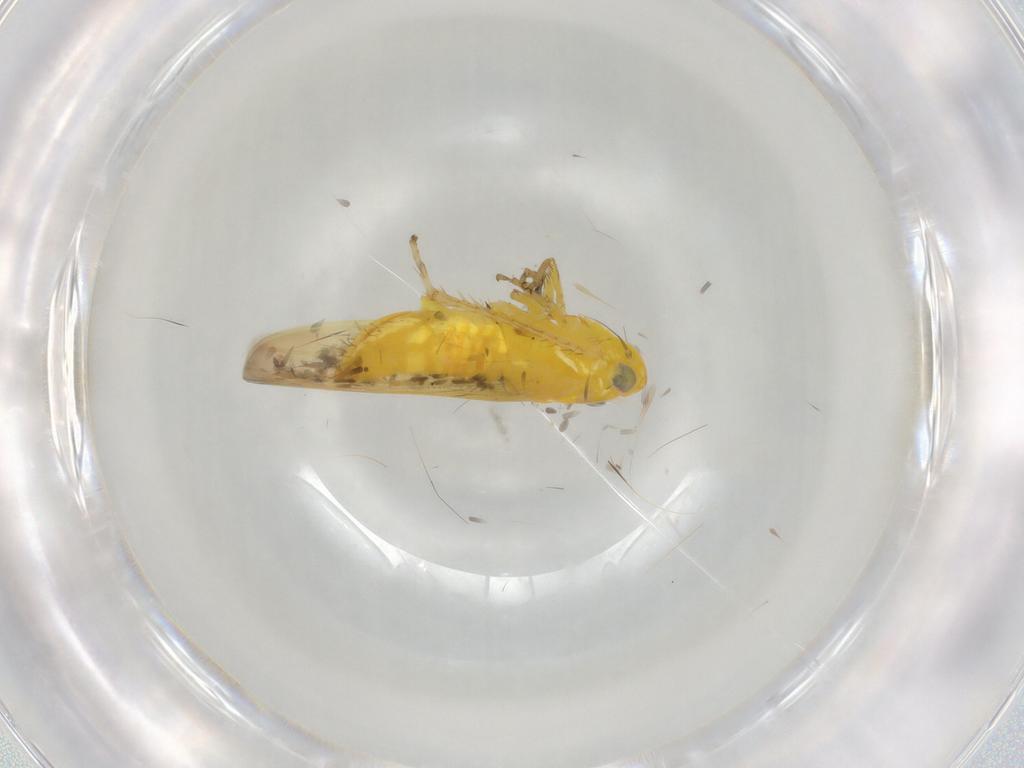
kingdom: Animalia
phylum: Arthropoda
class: Insecta
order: Hemiptera
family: Cicadellidae
